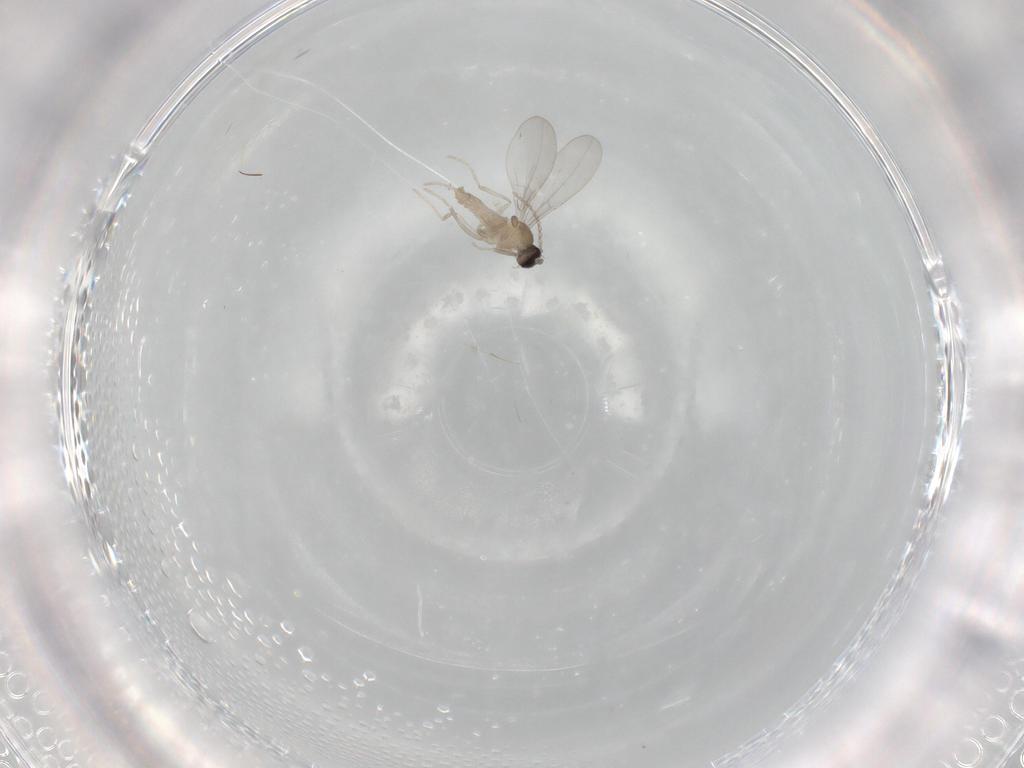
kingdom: Animalia
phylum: Arthropoda
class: Insecta
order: Diptera
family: Cecidomyiidae
